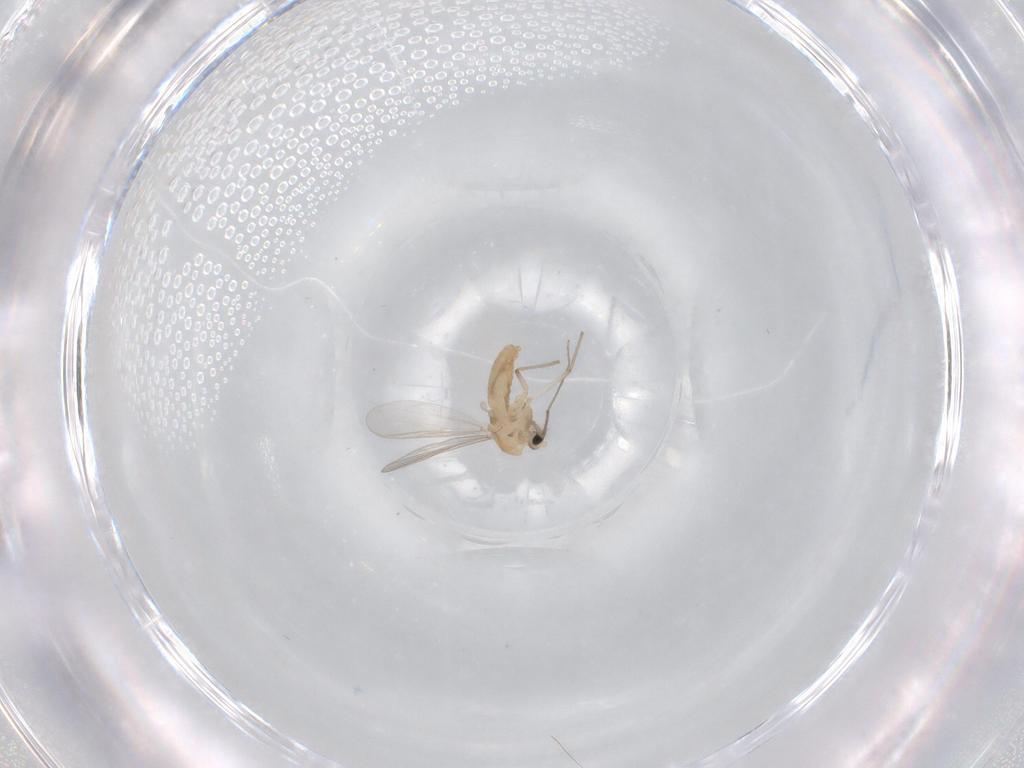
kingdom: Animalia
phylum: Arthropoda
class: Insecta
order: Diptera
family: Chironomidae
